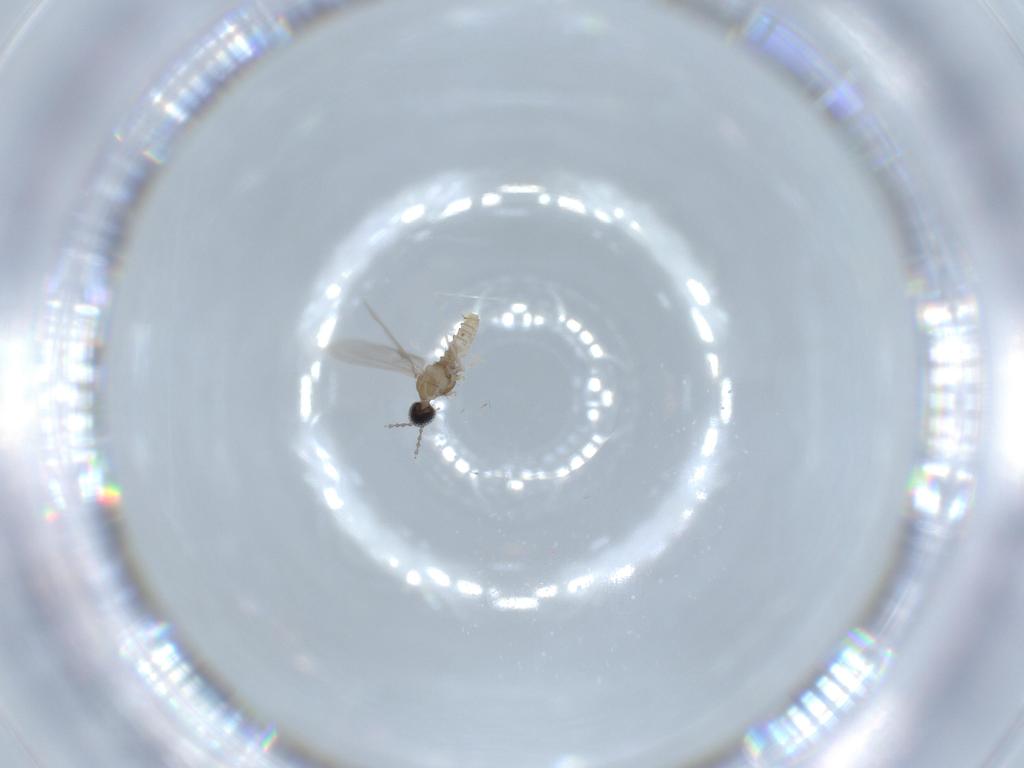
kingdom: Animalia
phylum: Arthropoda
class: Insecta
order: Diptera
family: Cecidomyiidae
